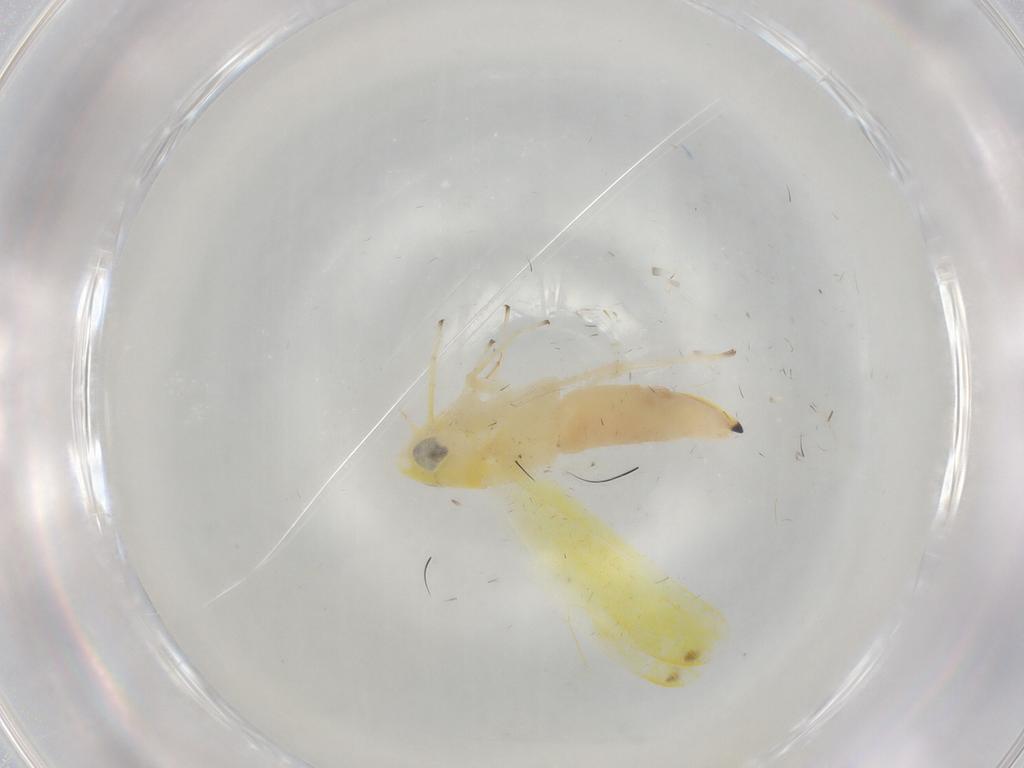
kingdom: Animalia
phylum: Arthropoda
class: Insecta
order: Hemiptera
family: Cicadellidae
